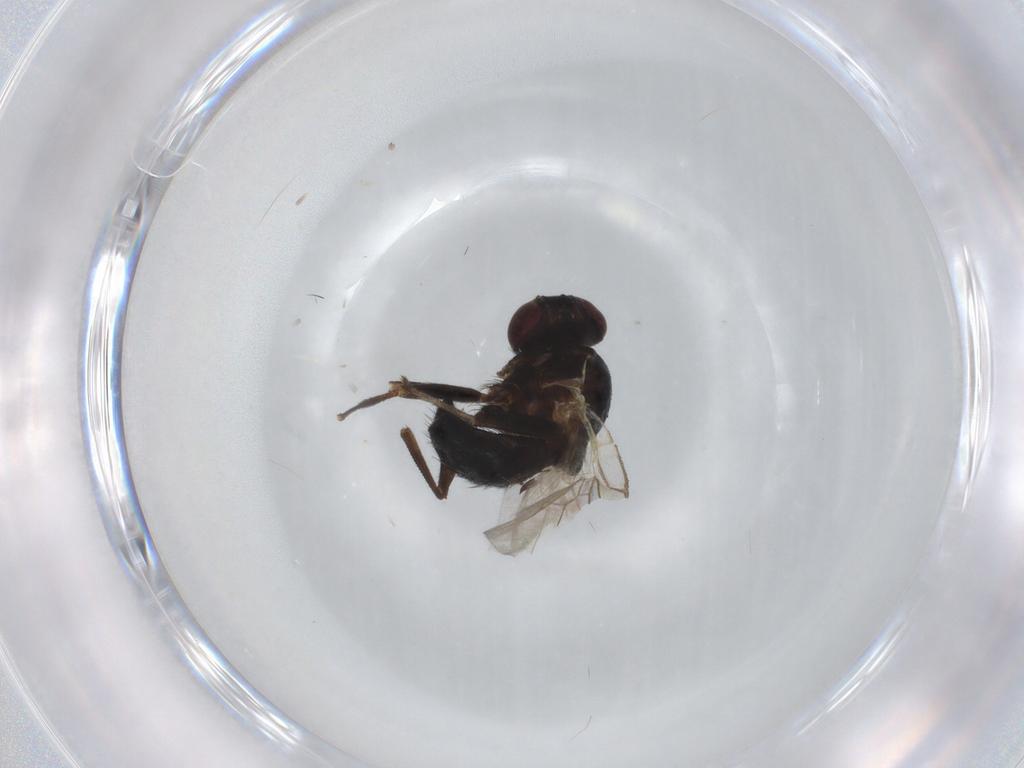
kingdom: Animalia
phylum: Arthropoda
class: Insecta
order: Diptera
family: Agromyzidae
